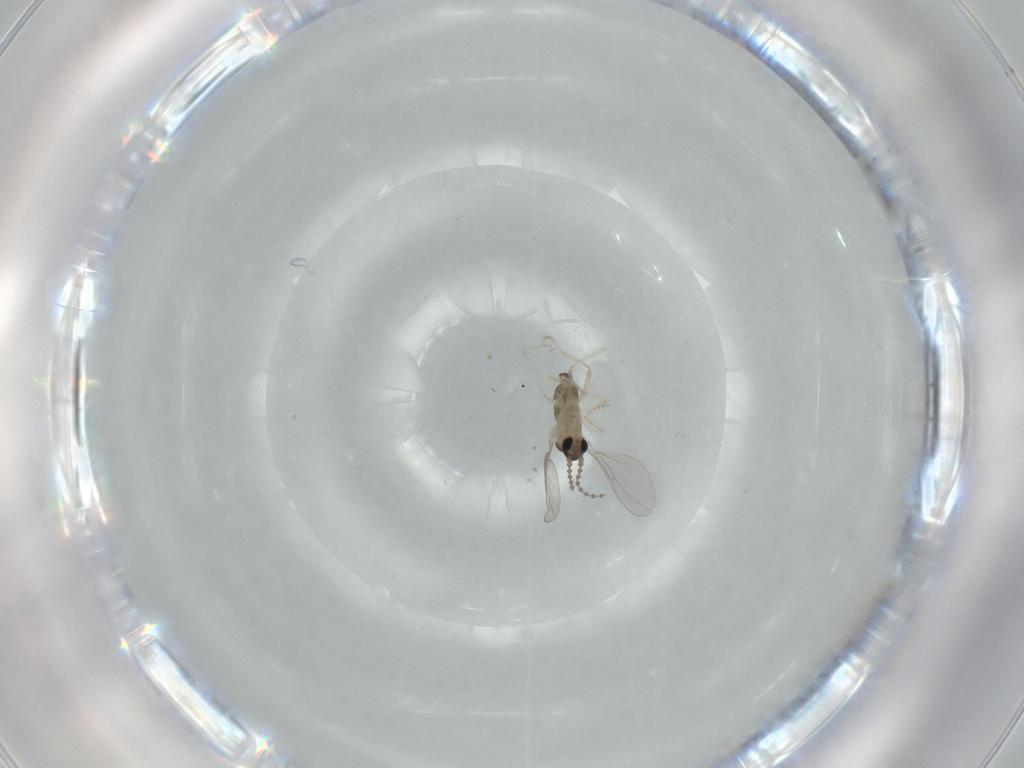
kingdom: Animalia
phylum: Arthropoda
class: Insecta
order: Diptera
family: Cecidomyiidae
